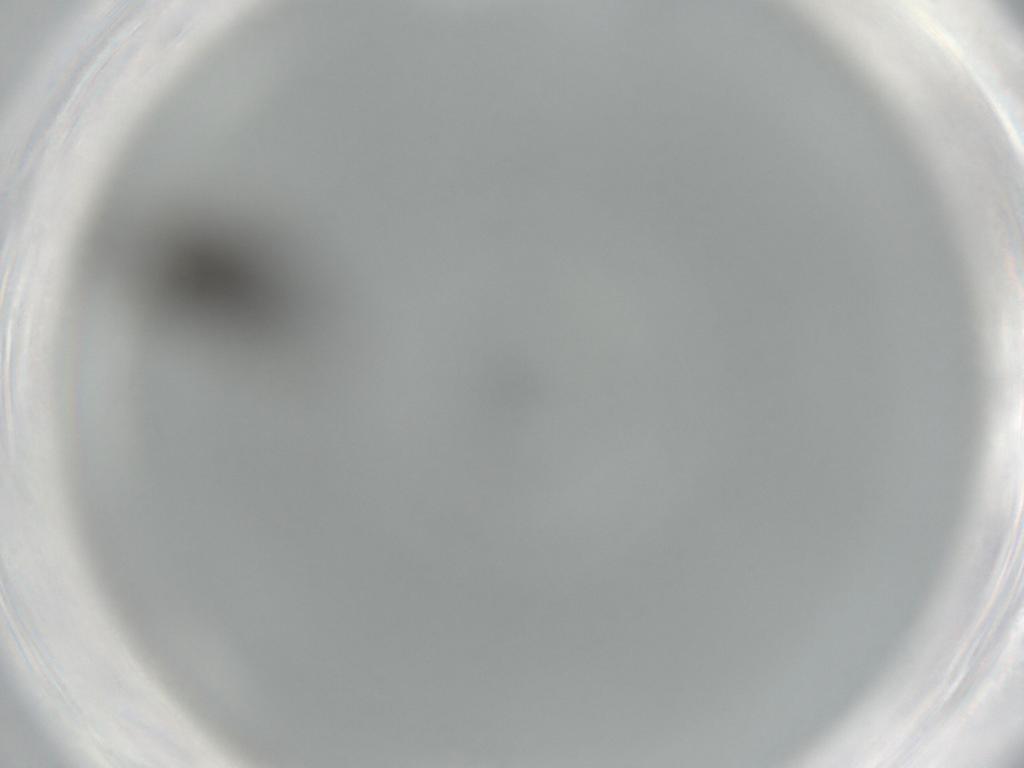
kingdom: Animalia
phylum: Arthropoda
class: Insecta
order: Diptera
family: Sciaridae
